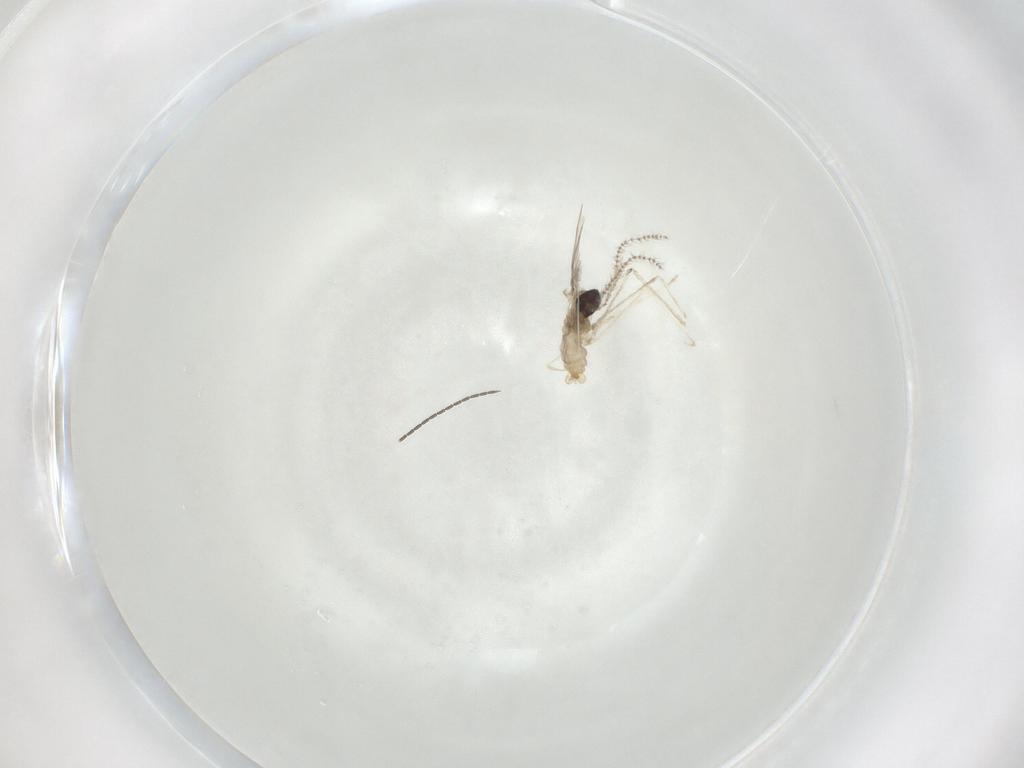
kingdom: Animalia
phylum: Arthropoda
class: Insecta
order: Diptera
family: Cecidomyiidae
